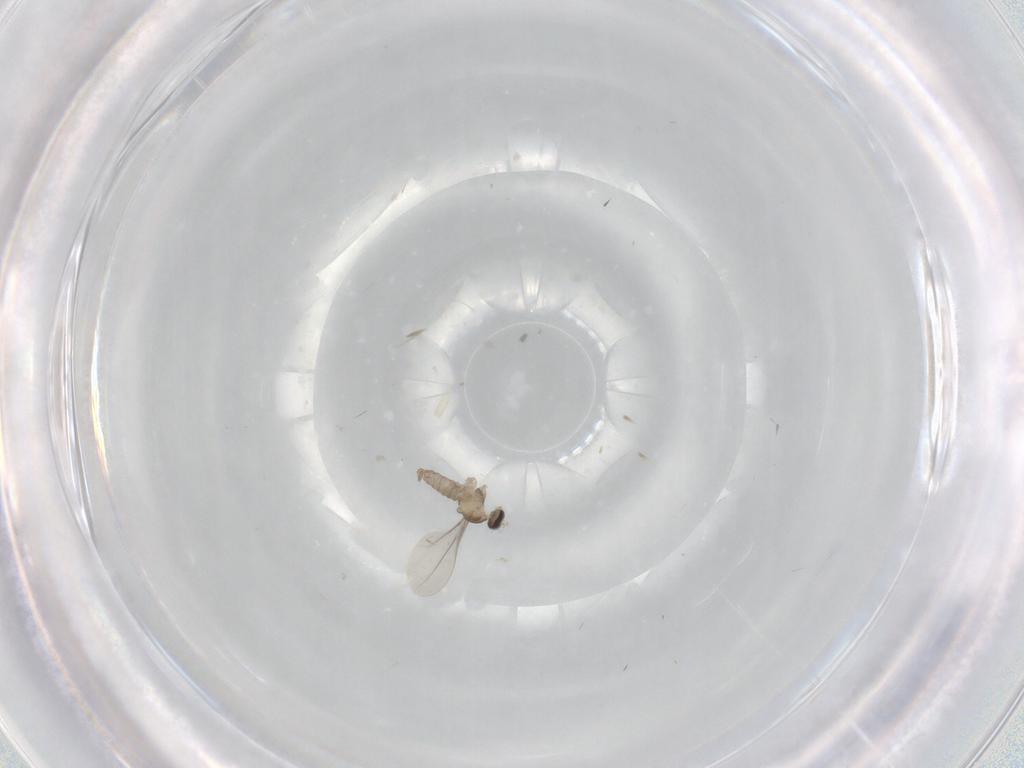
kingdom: Animalia
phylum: Arthropoda
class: Insecta
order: Diptera
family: Cecidomyiidae
